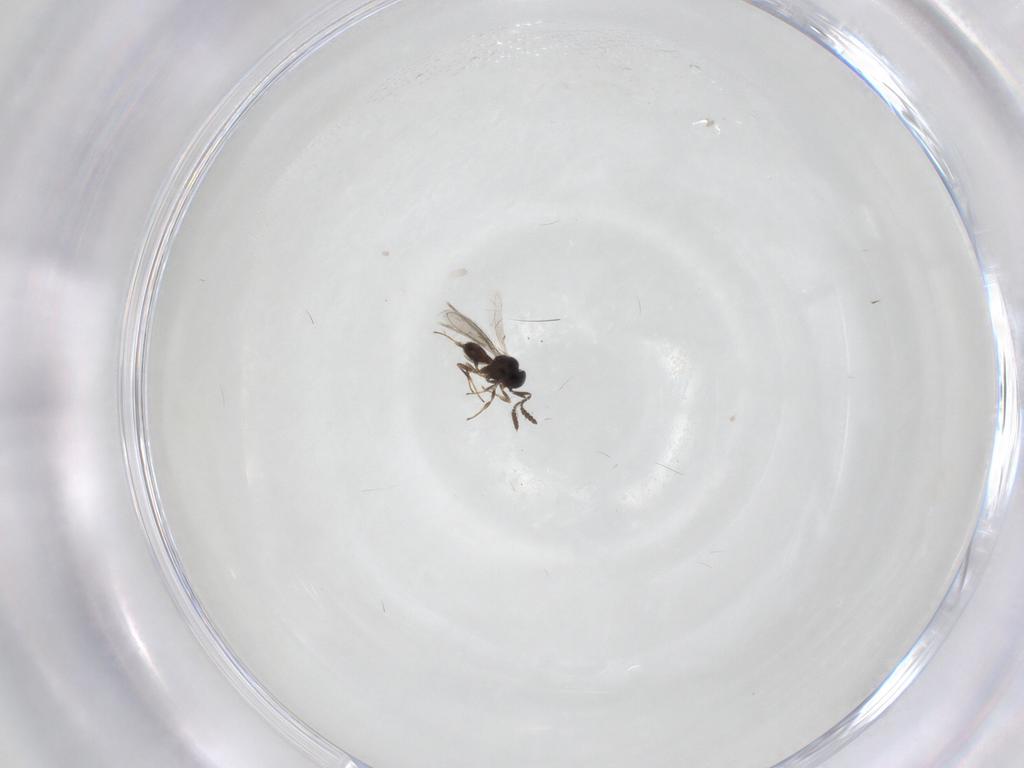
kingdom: Animalia
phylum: Arthropoda
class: Insecta
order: Hymenoptera
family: Scelionidae
